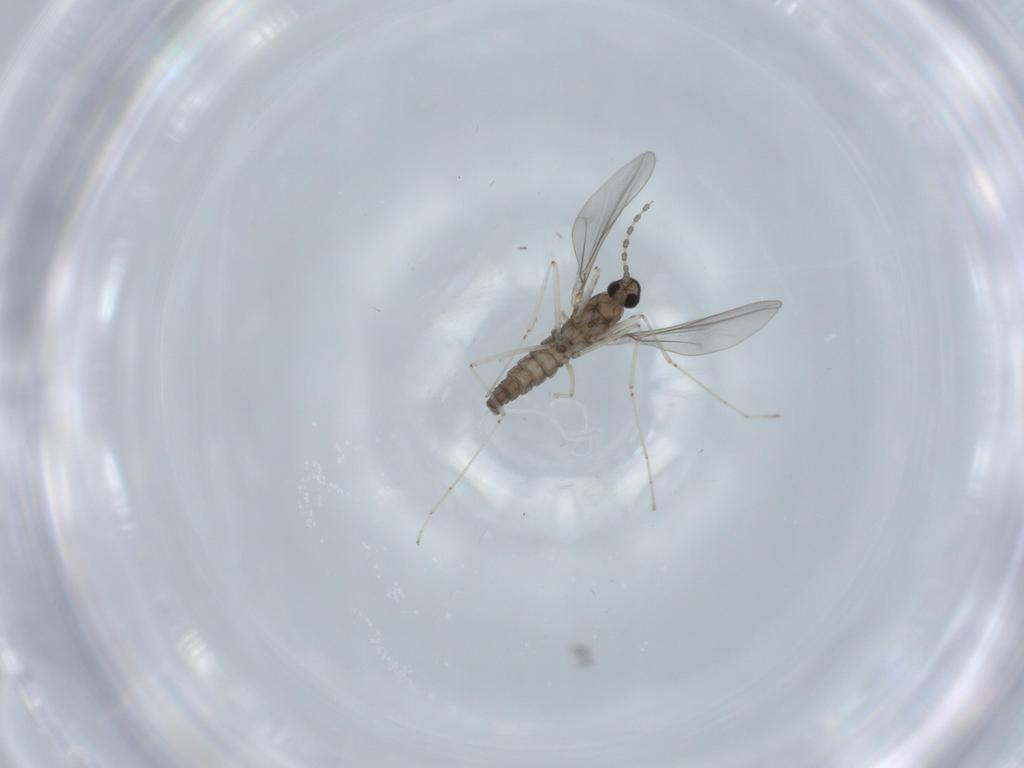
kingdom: Animalia
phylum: Arthropoda
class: Insecta
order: Diptera
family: Cecidomyiidae
